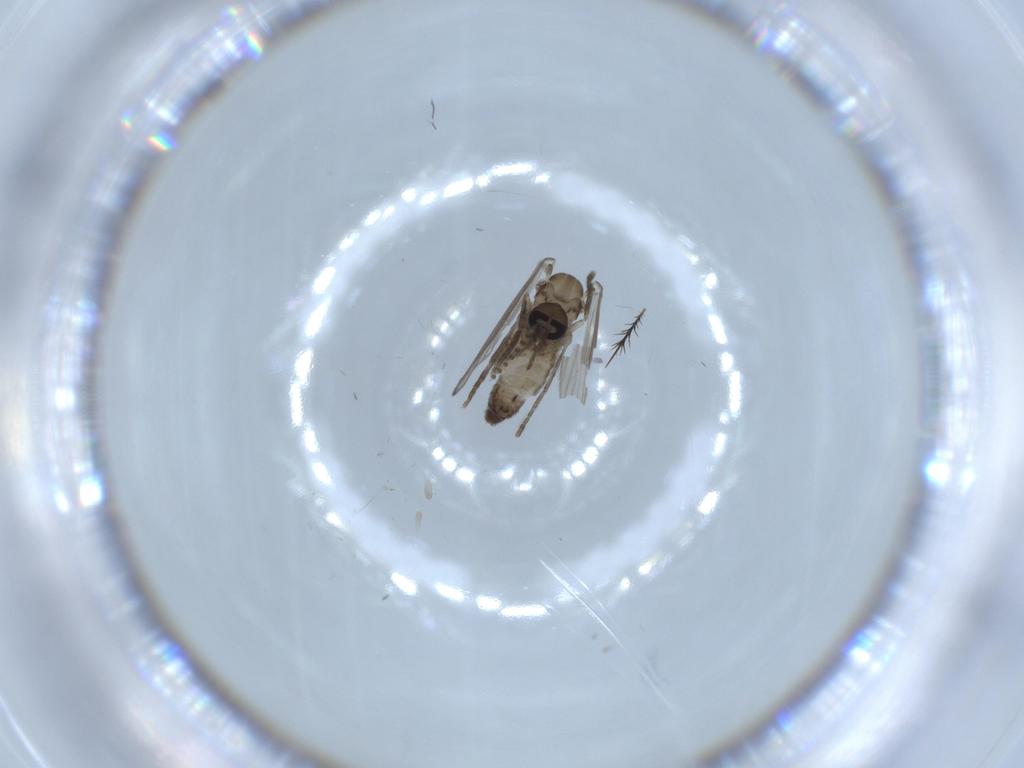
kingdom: Animalia
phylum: Arthropoda
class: Insecta
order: Diptera
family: Psychodidae
